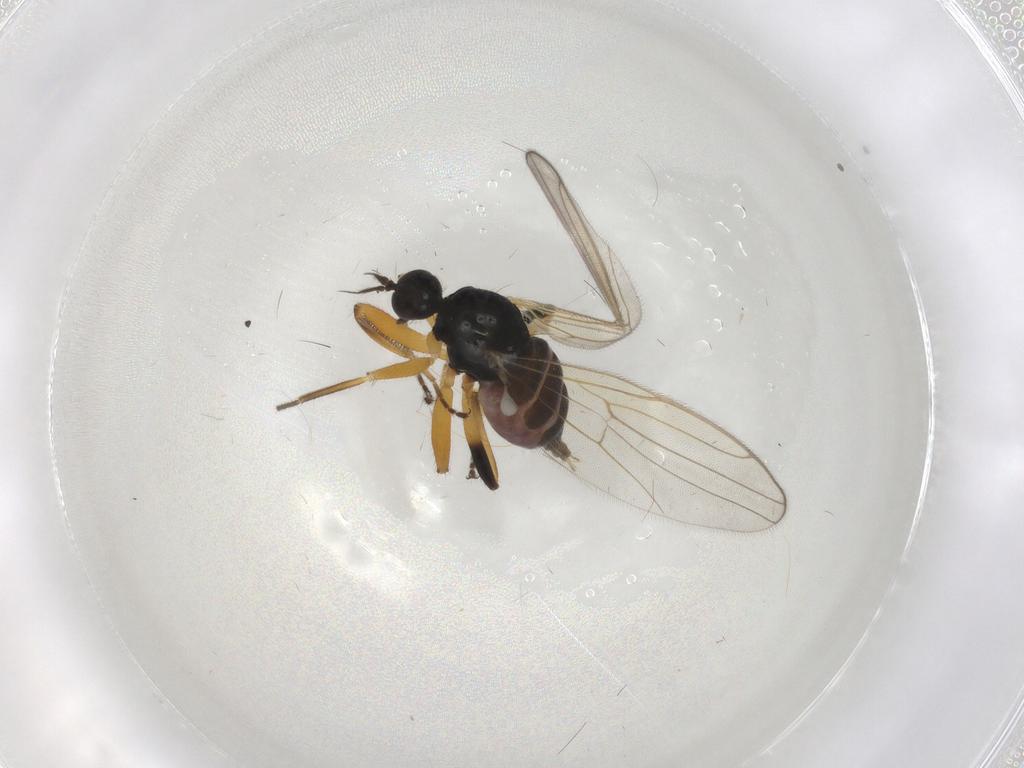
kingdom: Animalia
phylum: Arthropoda
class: Insecta
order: Diptera
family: Hybotidae
